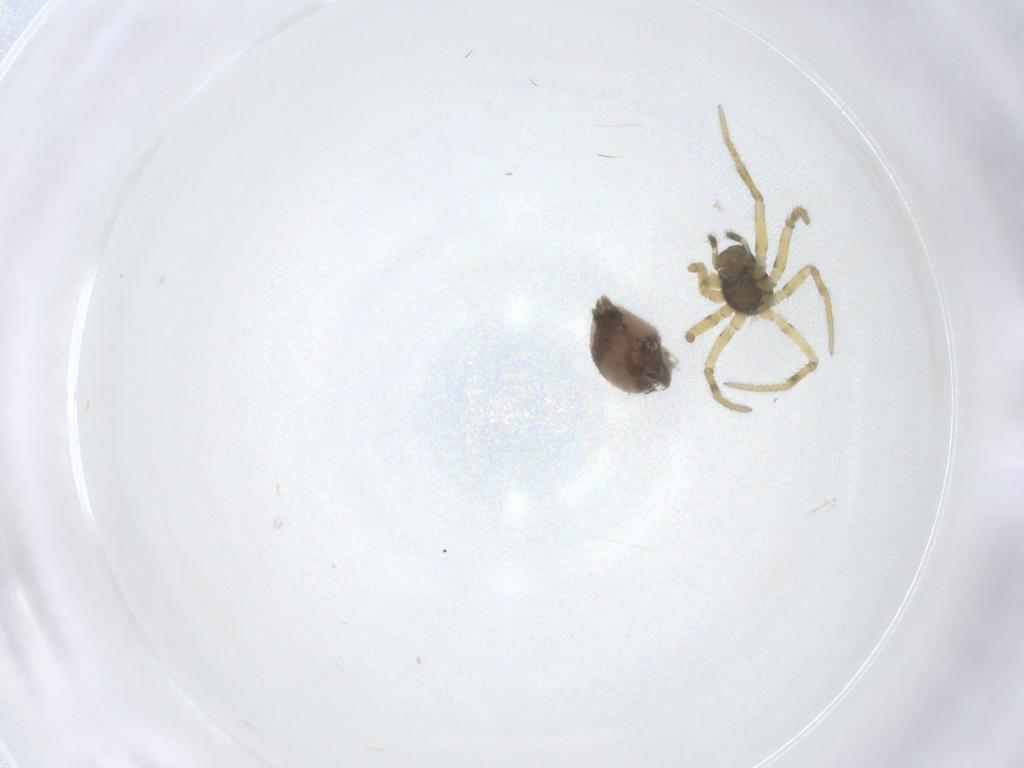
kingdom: Animalia
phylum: Arthropoda
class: Arachnida
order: Araneae
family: Linyphiidae
